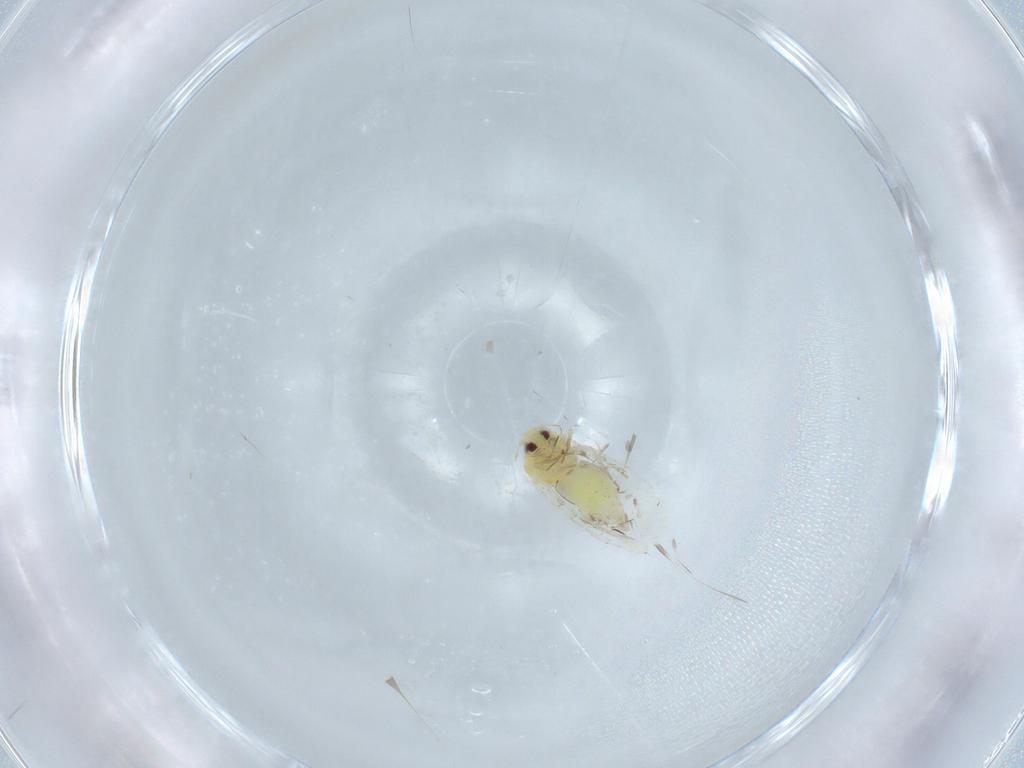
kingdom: Animalia
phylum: Arthropoda
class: Insecta
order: Hemiptera
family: Aleyrodidae
